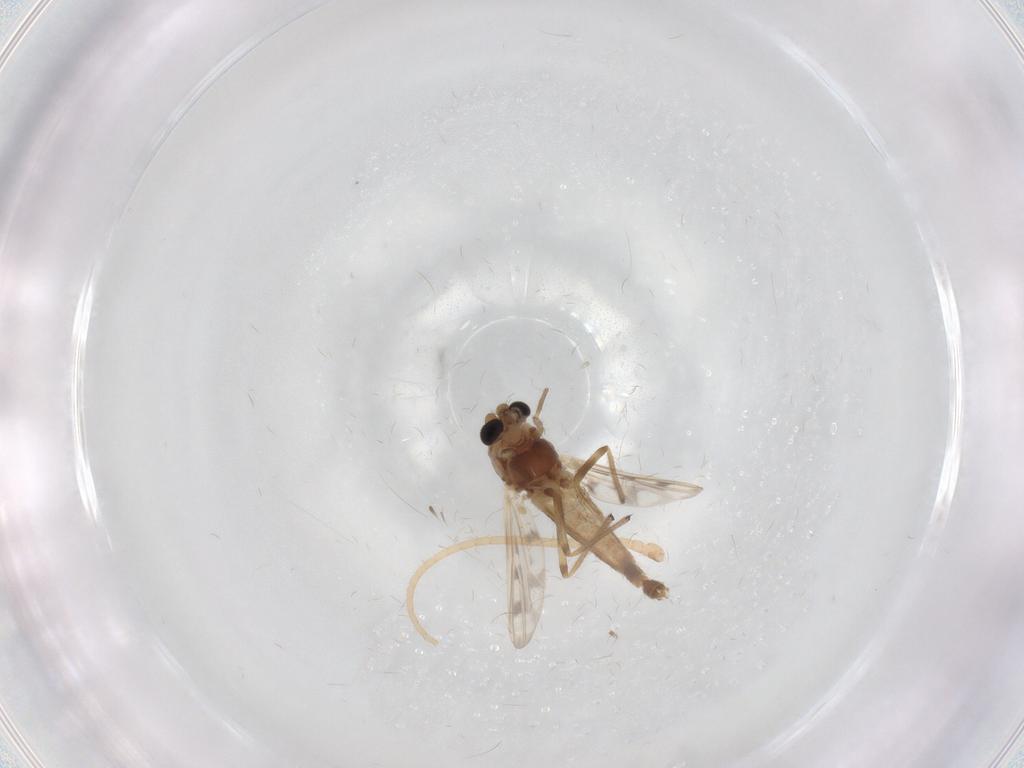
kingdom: Animalia
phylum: Arthropoda
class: Insecta
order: Diptera
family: Chironomidae
